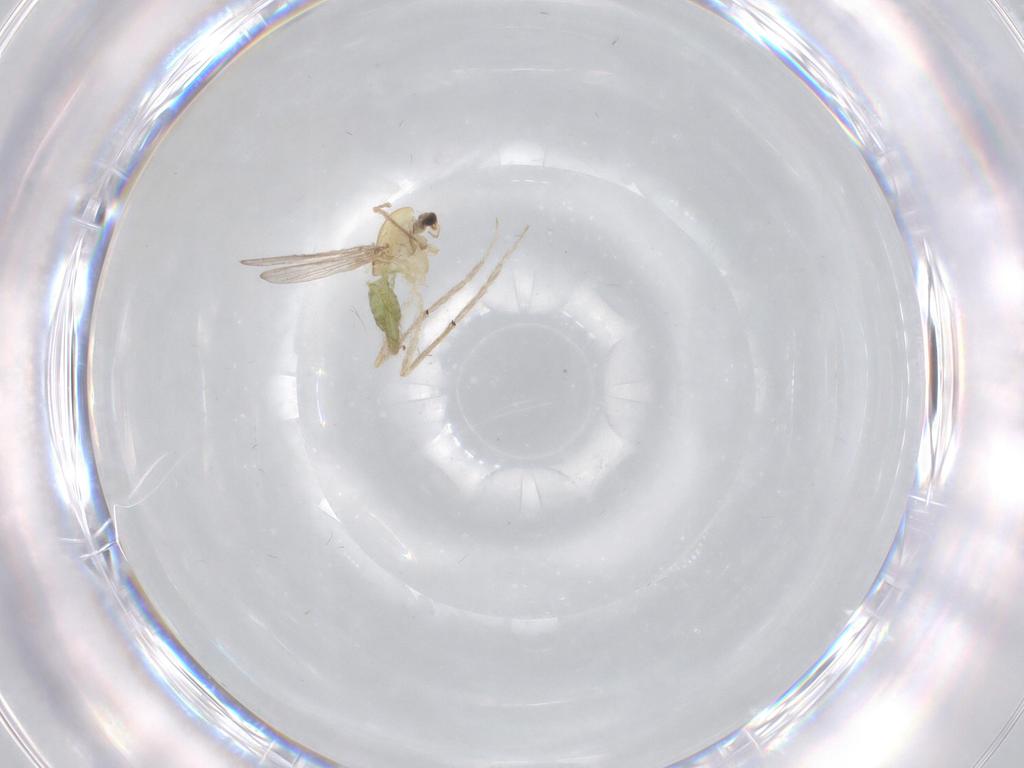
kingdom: Animalia
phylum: Arthropoda
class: Insecta
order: Diptera
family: Chironomidae
